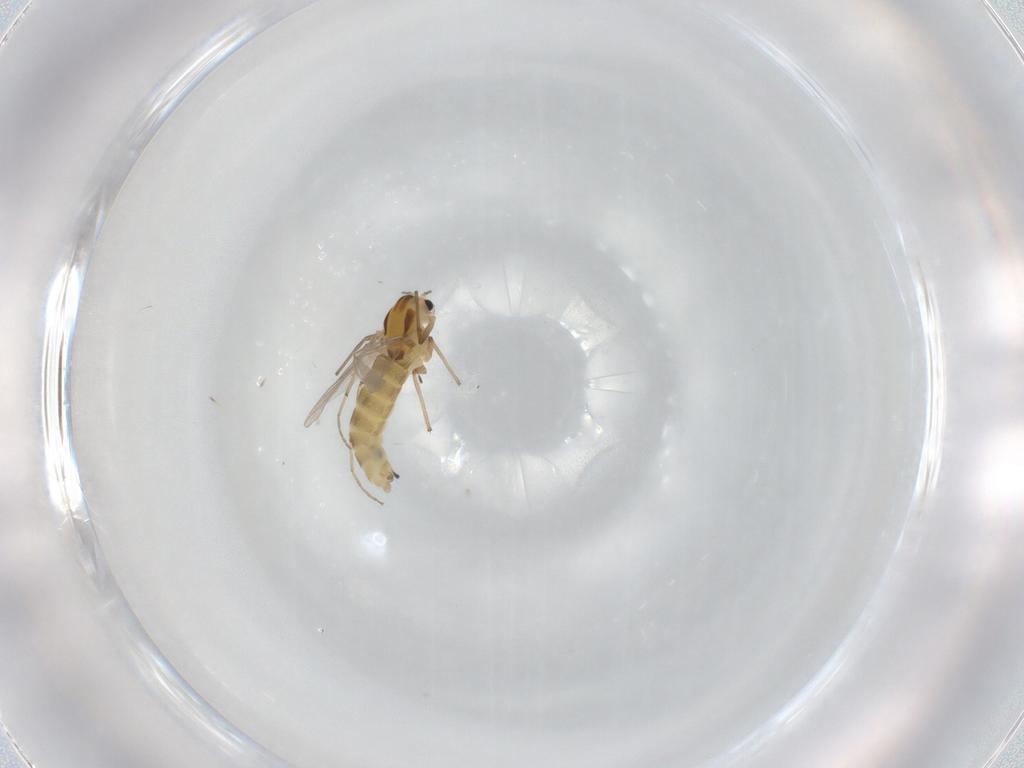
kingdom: Animalia
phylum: Arthropoda
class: Insecta
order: Diptera
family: Chironomidae
